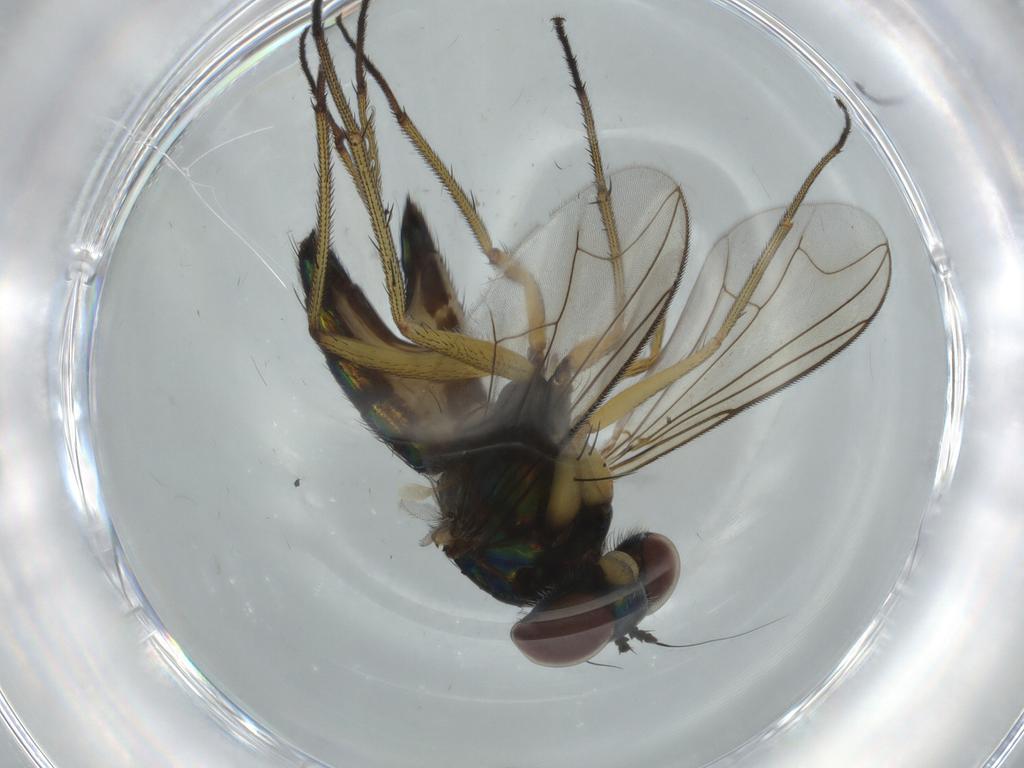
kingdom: Animalia
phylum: Arthropoda
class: Insecta
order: Diptera
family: Dolichopodidae
